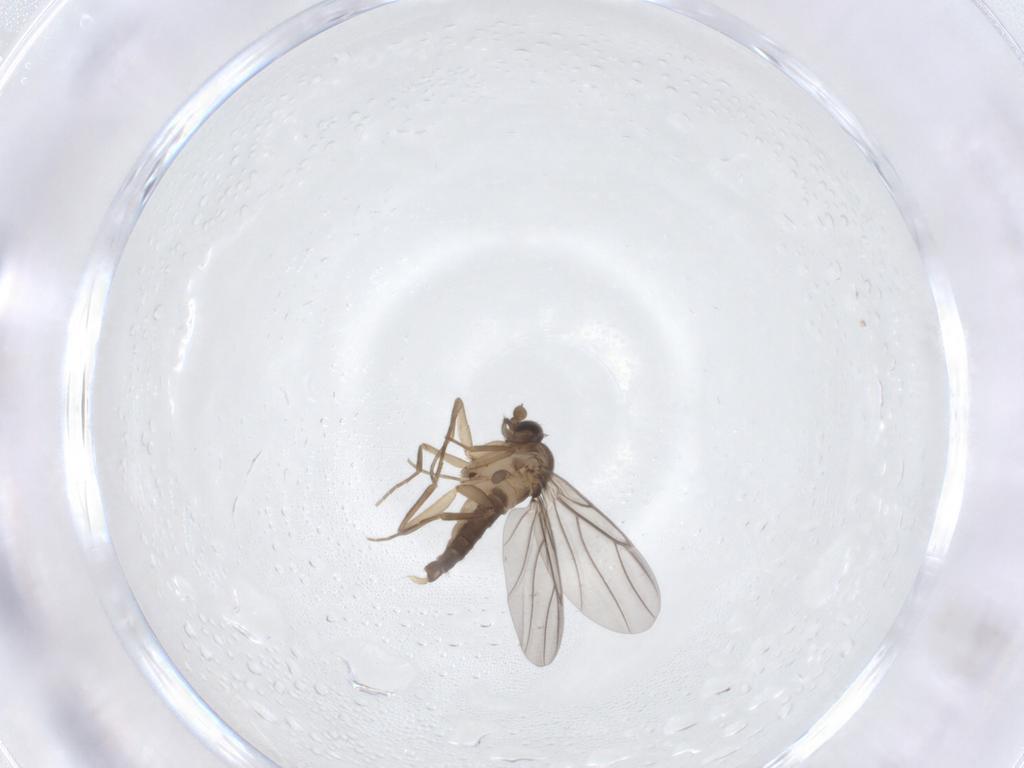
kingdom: Animalia
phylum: Arthropoda
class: Insecta
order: Diptera
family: Phoridae
